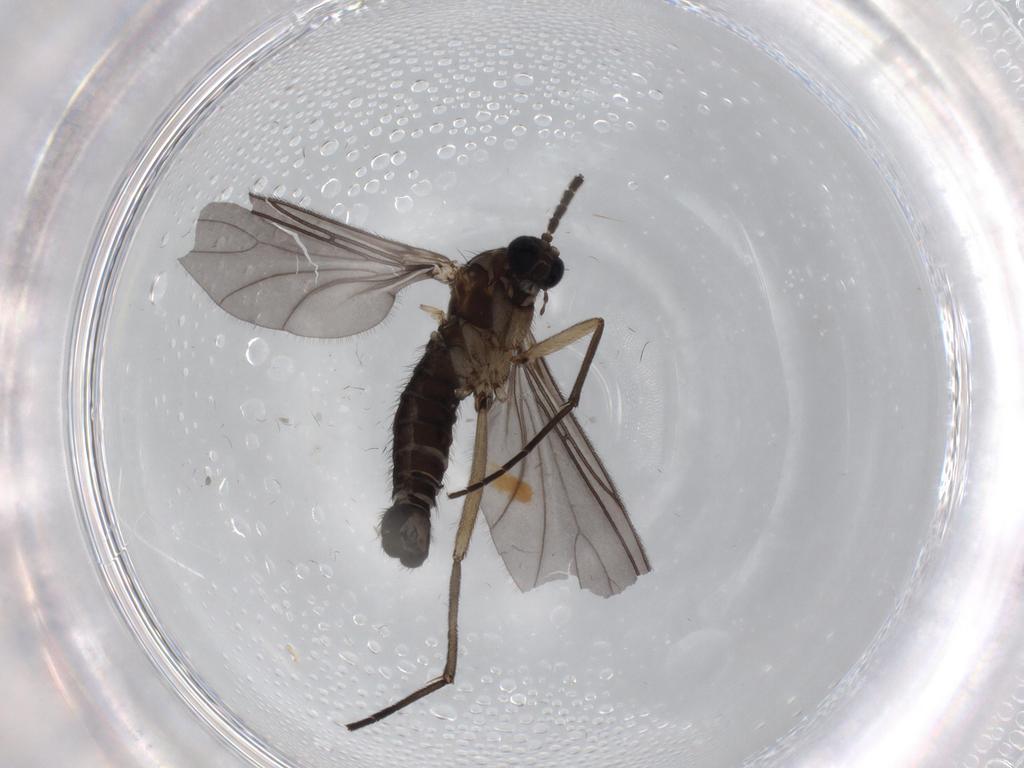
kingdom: Animalia
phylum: Arthropoda
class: Insecta
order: Diptera
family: Sciaridae
